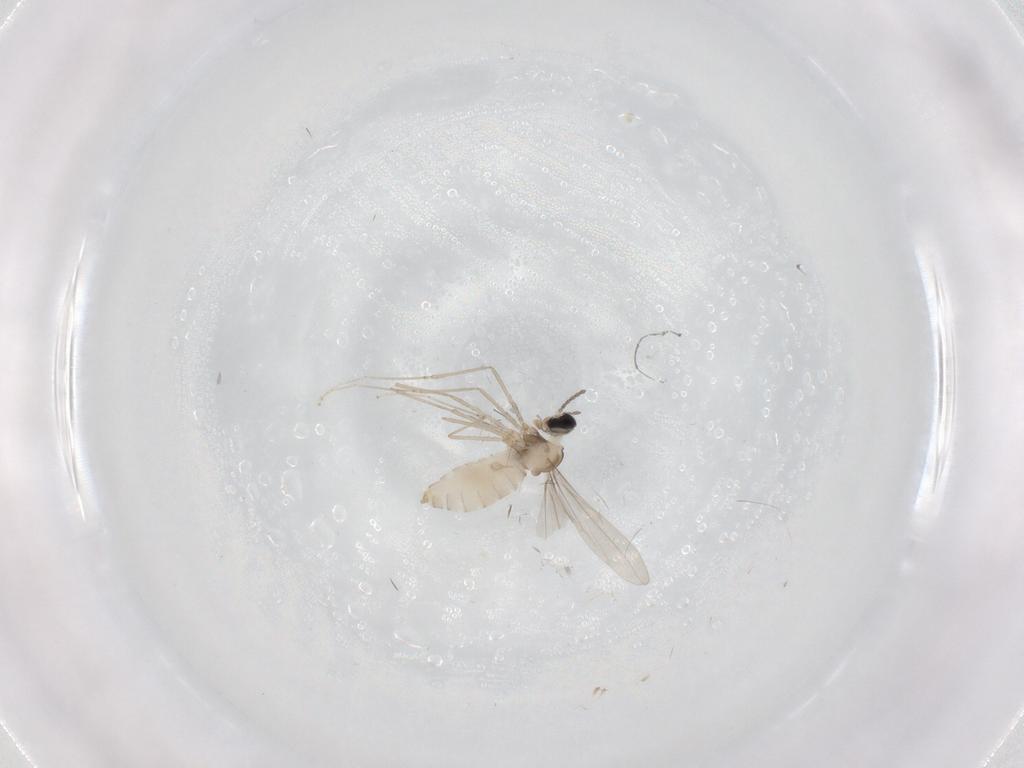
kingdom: Animalia
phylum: Arthropoda
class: Insecta
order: Diptera
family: Cecidomyiidae
